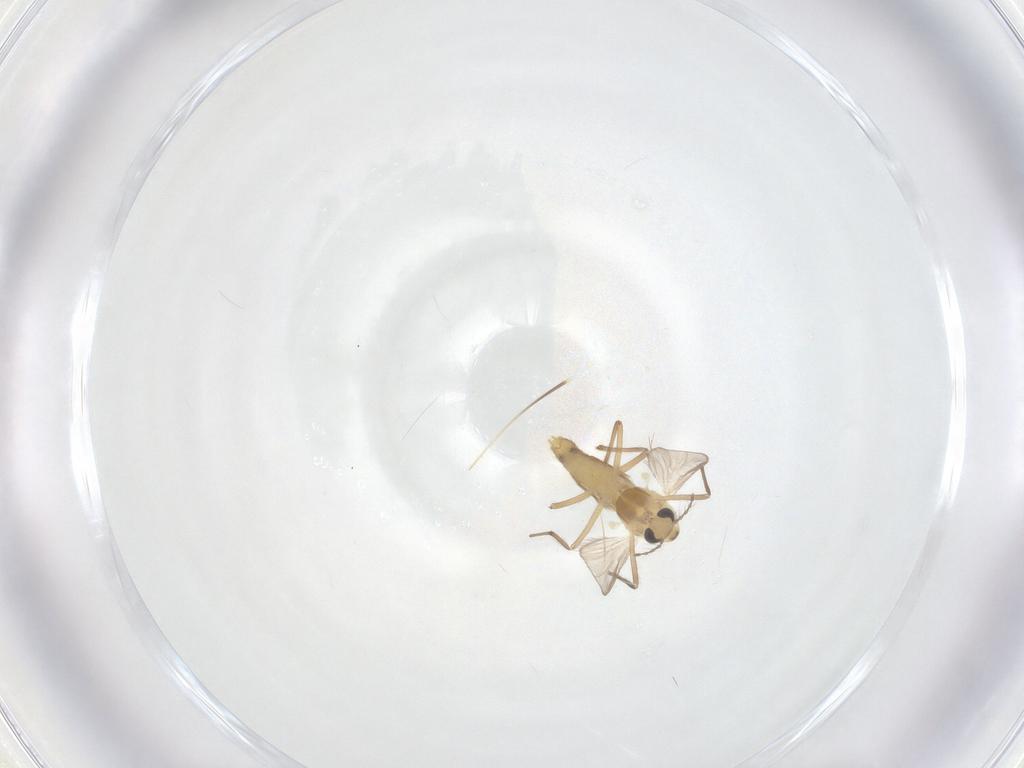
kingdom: Animalia
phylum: Arthropoda
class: Insecta
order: Diptera
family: Chironomidae
